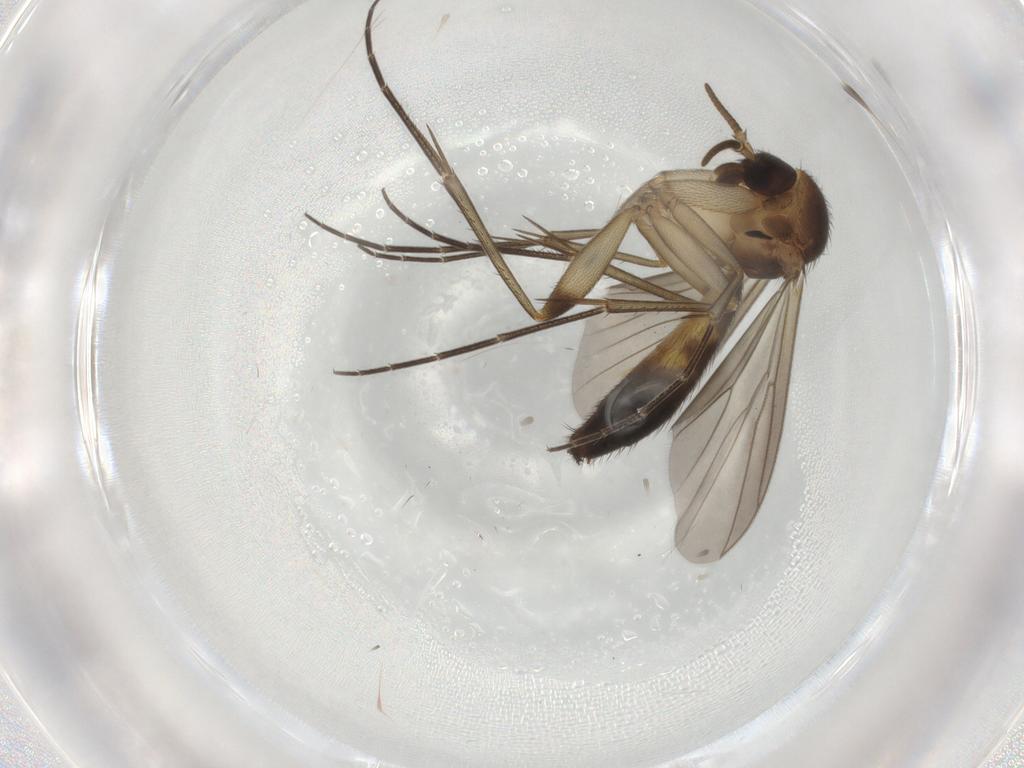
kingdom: Animalia
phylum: Arthropoda
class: Insecta
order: Diptera
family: Mycetophilidae
